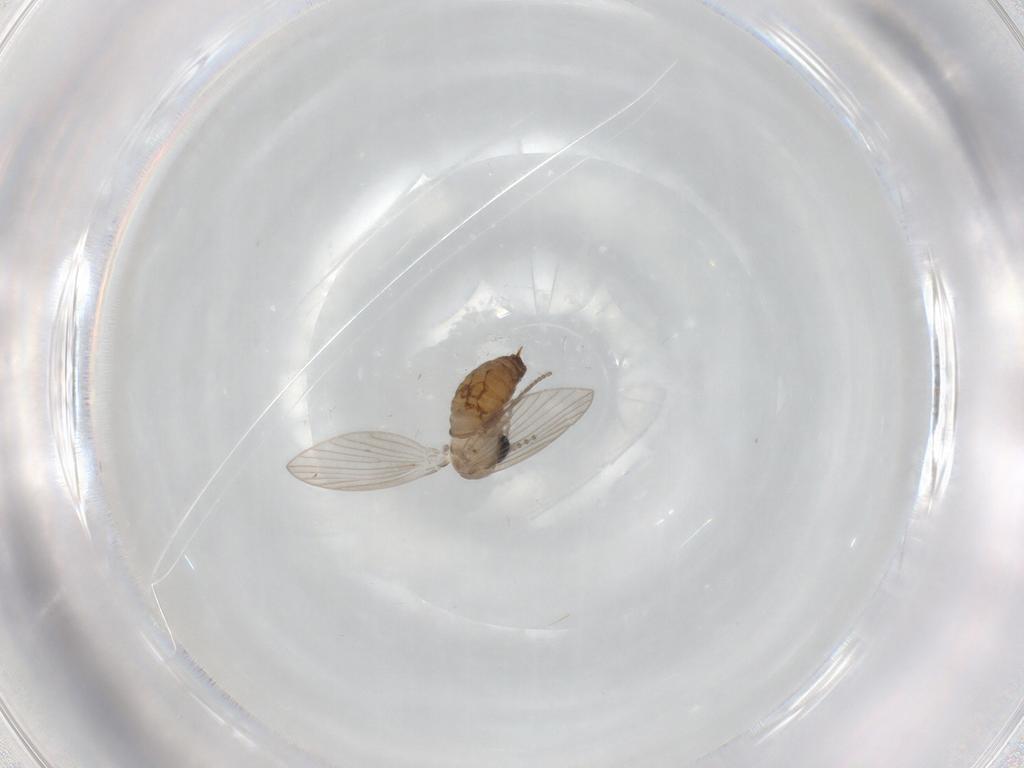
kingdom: Animalia
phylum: Arthropoda
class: Insecta
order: Diptera
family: Psychodidae
